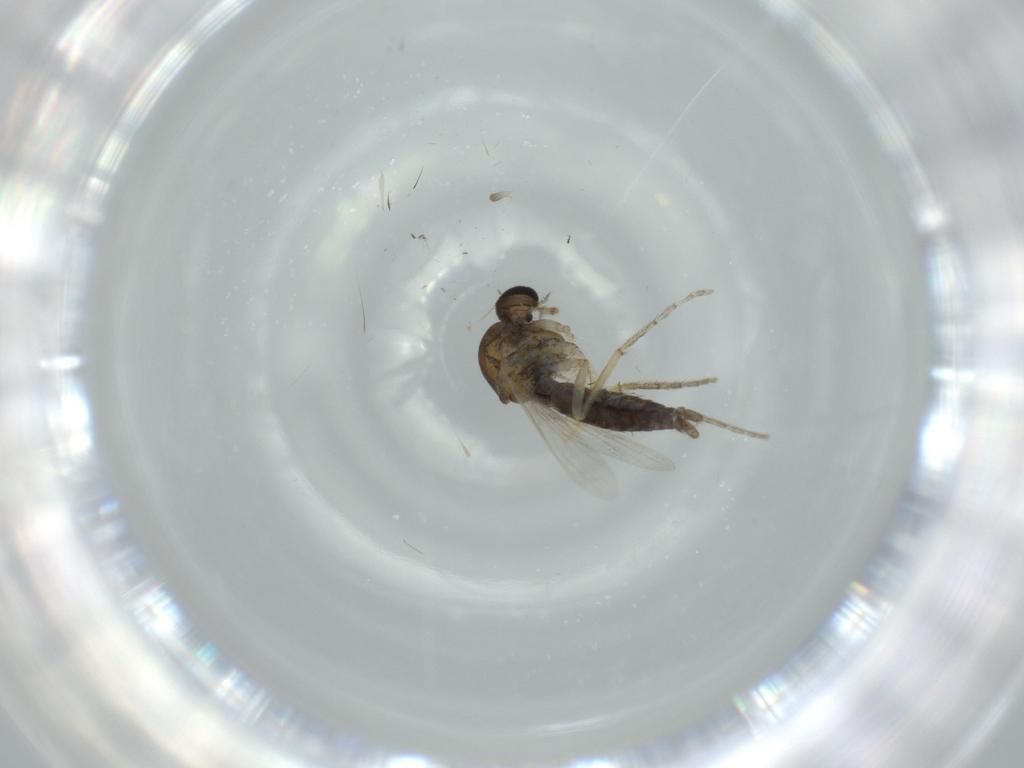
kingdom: Animalia
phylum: Arthropoda
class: Insecta
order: Diptera
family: Ceratopogonidae
